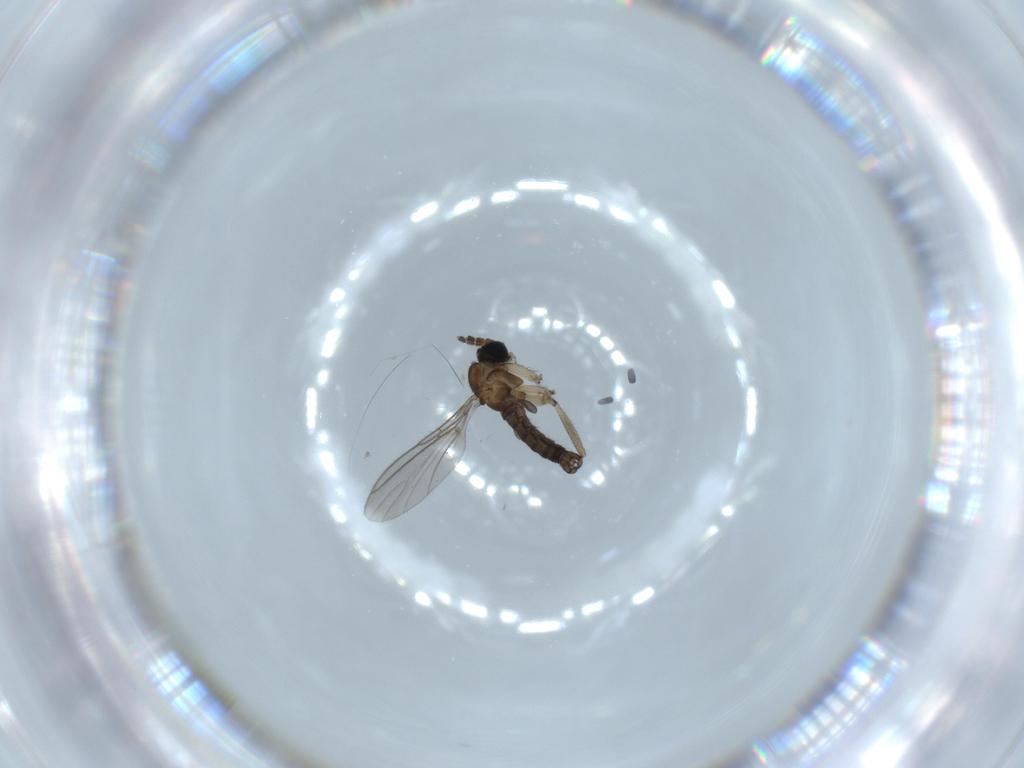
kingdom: Animalia
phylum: Arthropoda
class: Insecta
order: Diptera
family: Sciaridae
